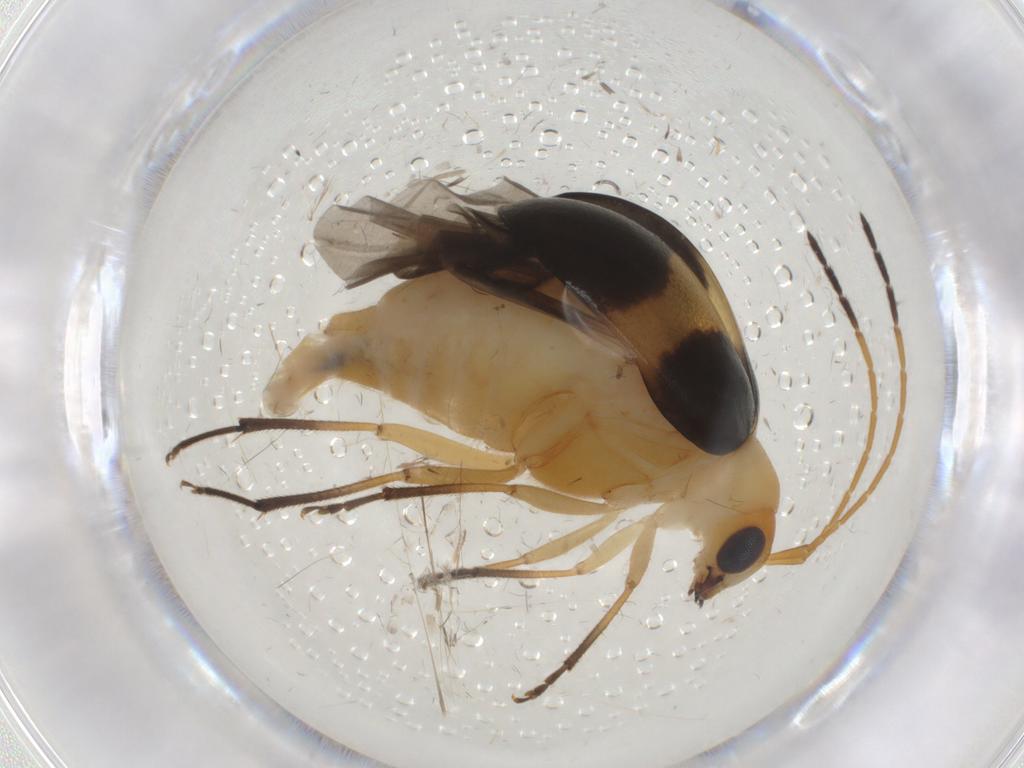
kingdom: Animalia
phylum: Arthropoda
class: Insecta
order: Coleoptera
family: Chrysomelidae
